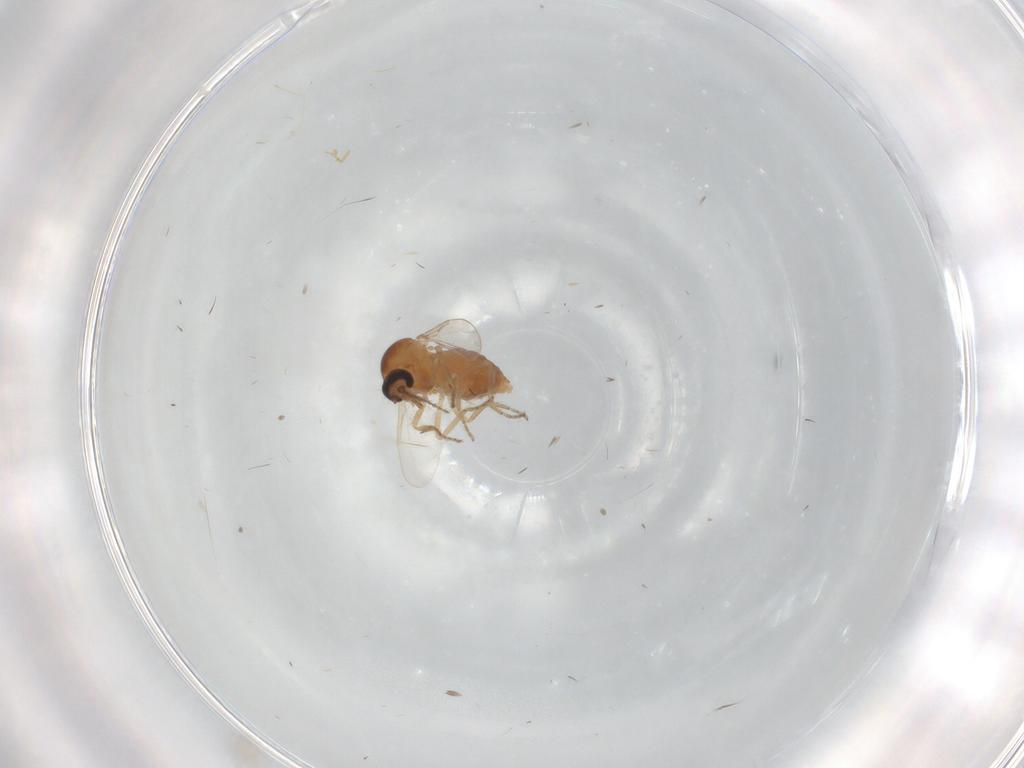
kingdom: Animalia
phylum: Arthropoda
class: Insecta
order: Diptera
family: Ceratopogonidae
